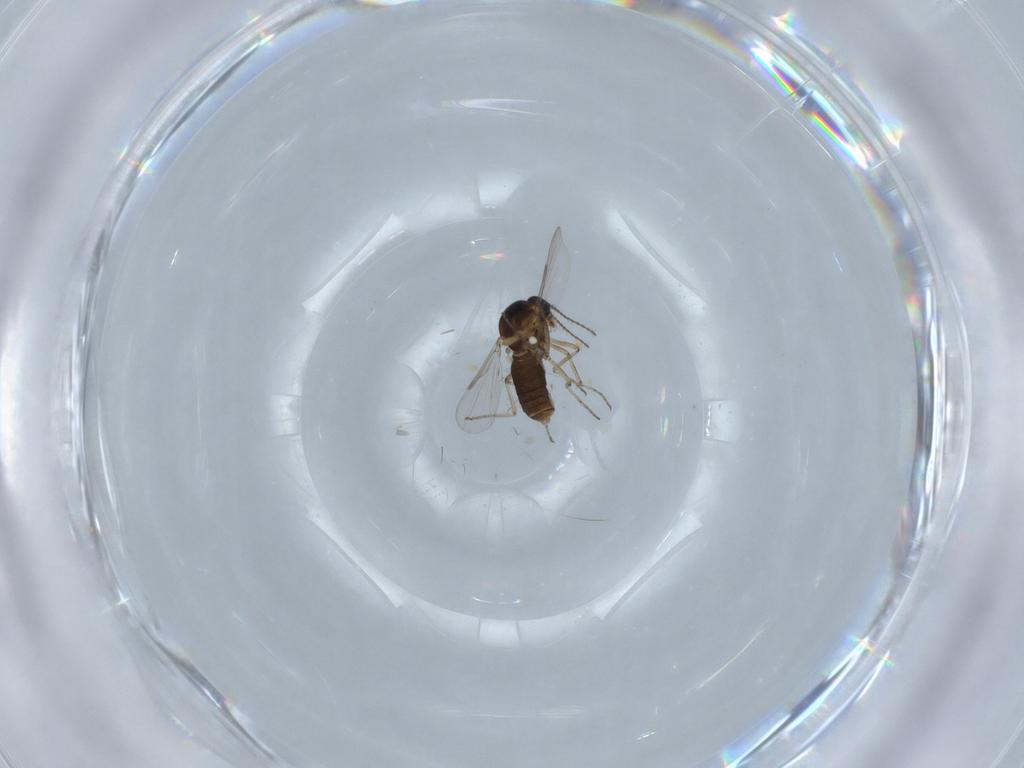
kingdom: Animalia
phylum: Arthropoda
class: Insecta
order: Diptera
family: Ceratopogonidae
